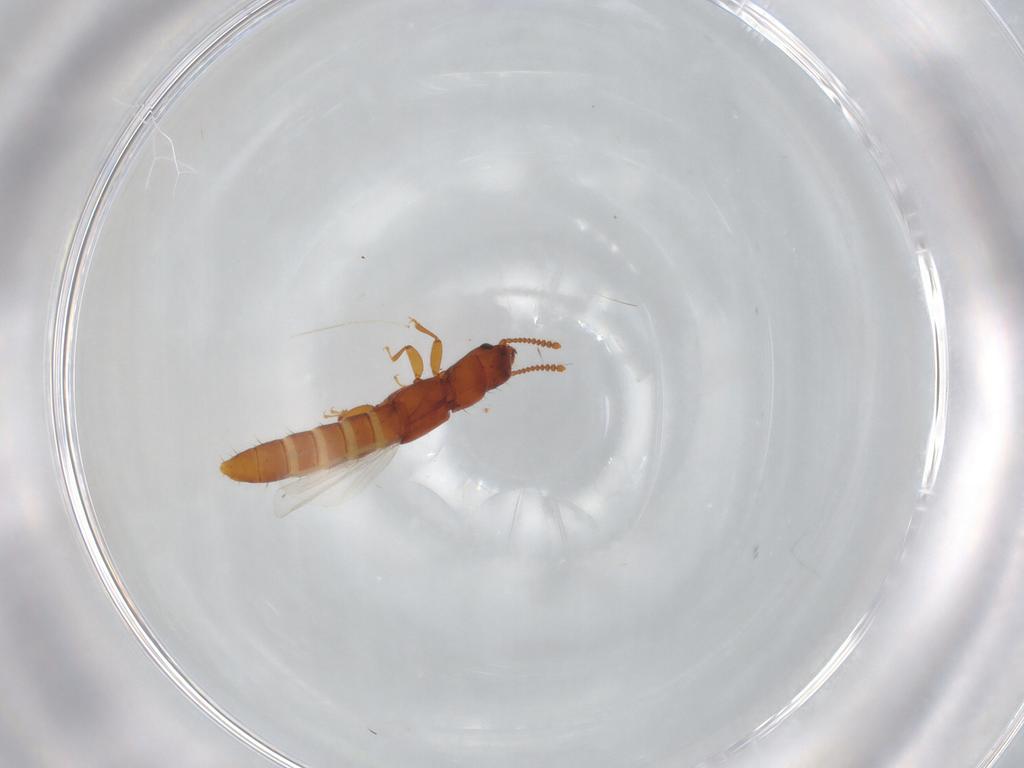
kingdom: Animalia
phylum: Arthropoda
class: Insecta
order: Coleoptera
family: Staphylinidae
